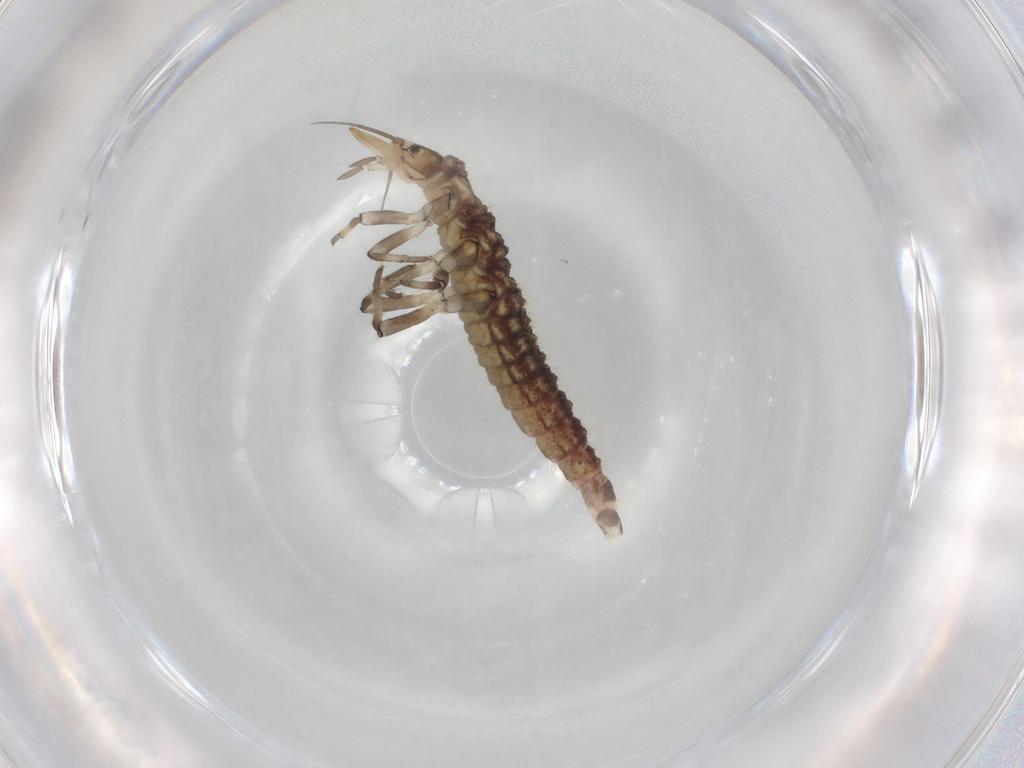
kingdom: Animalia
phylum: Arthropoda
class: Insecta
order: Neuroptera
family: Hemerobiidae
